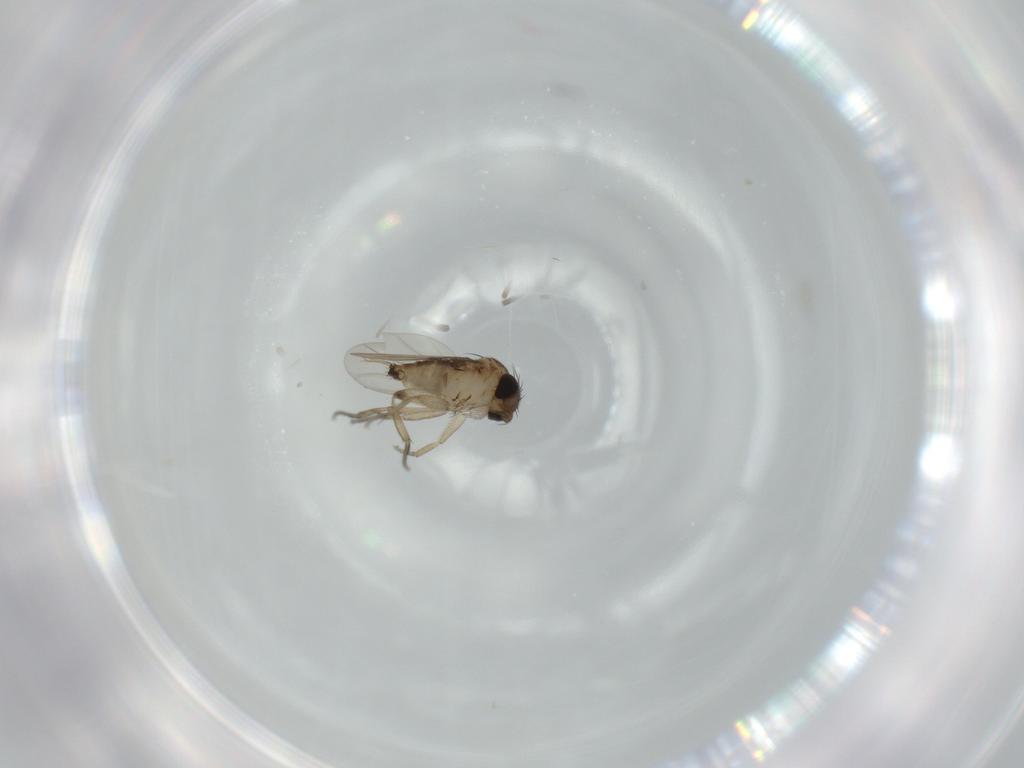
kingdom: Animalia
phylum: Arthropoda
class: Insecta
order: Diptera
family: Phoridae
